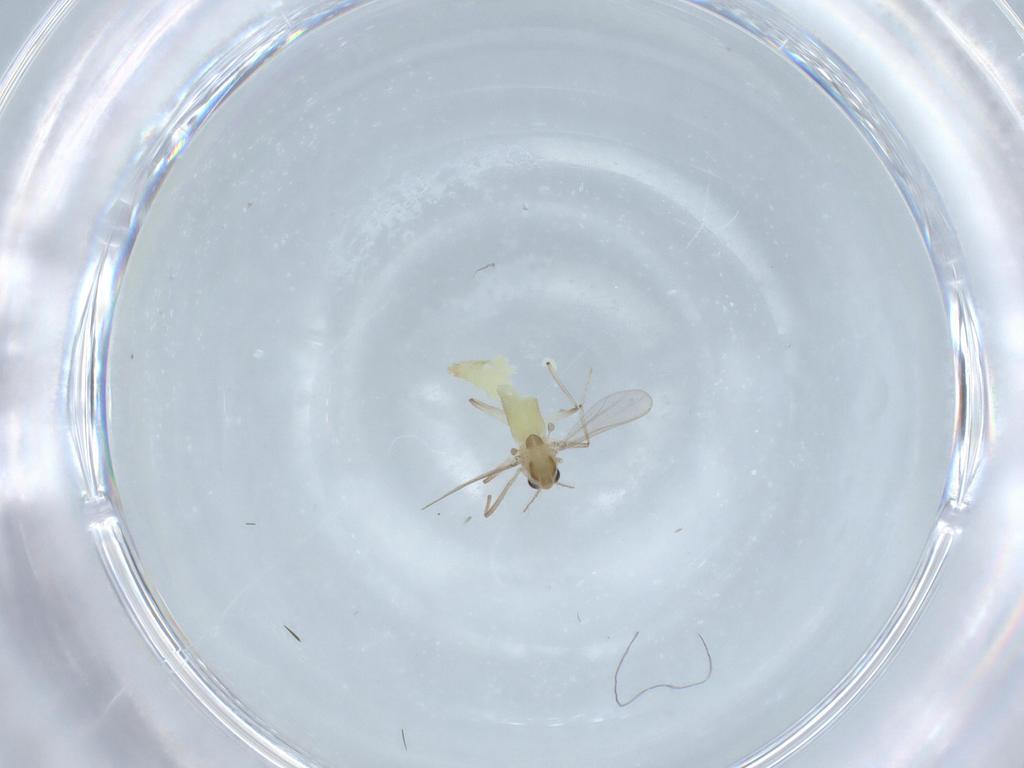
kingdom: Animalia
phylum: Arthropoda
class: Insecta
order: Diptera
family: Chironomidae
